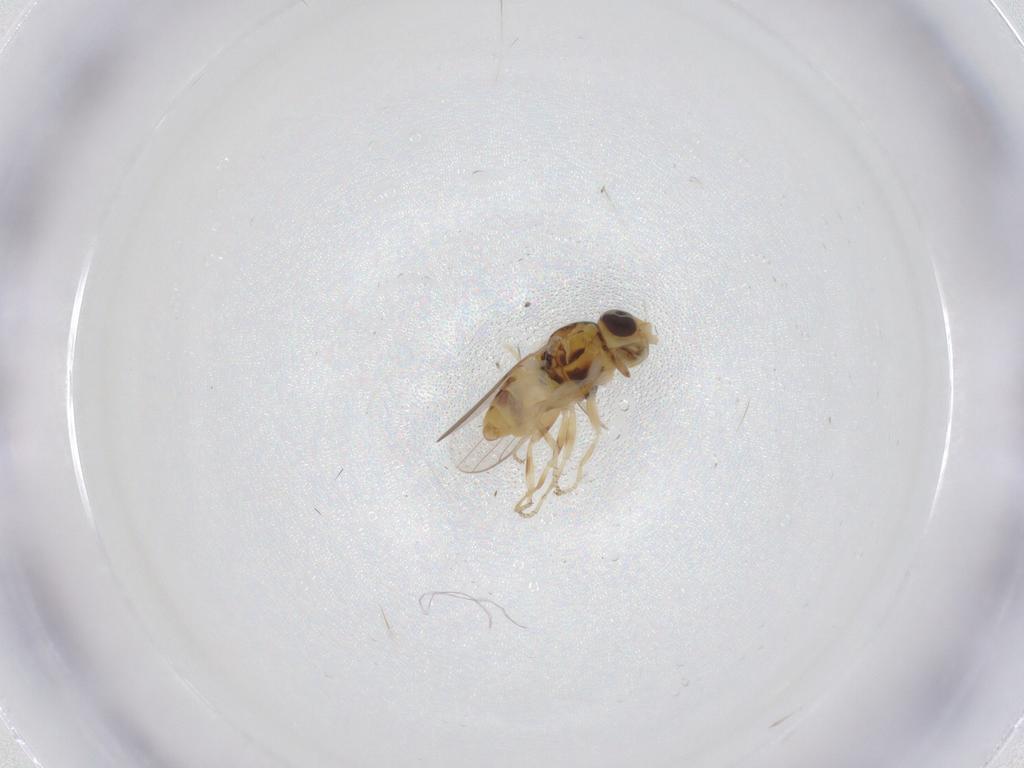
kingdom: Animalia
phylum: Arthropoda
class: Insecta
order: Diptera
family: Chloropidae
